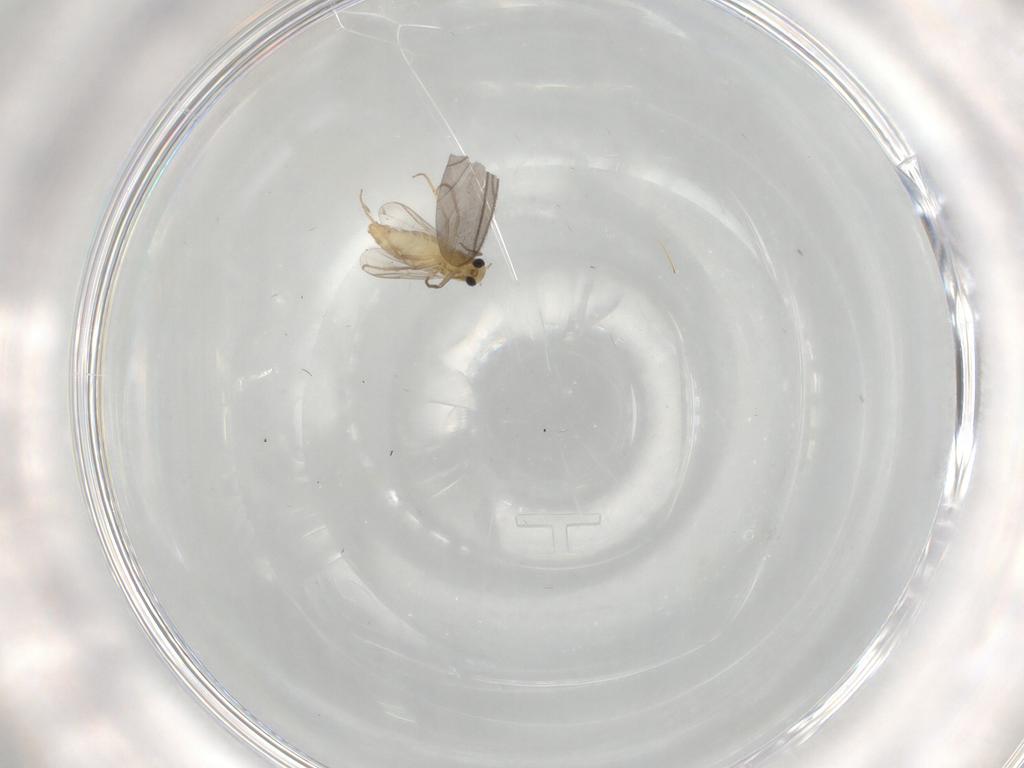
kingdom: Animalia
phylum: Arthropoda
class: Insecta
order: Diptera
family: Chironomidae
